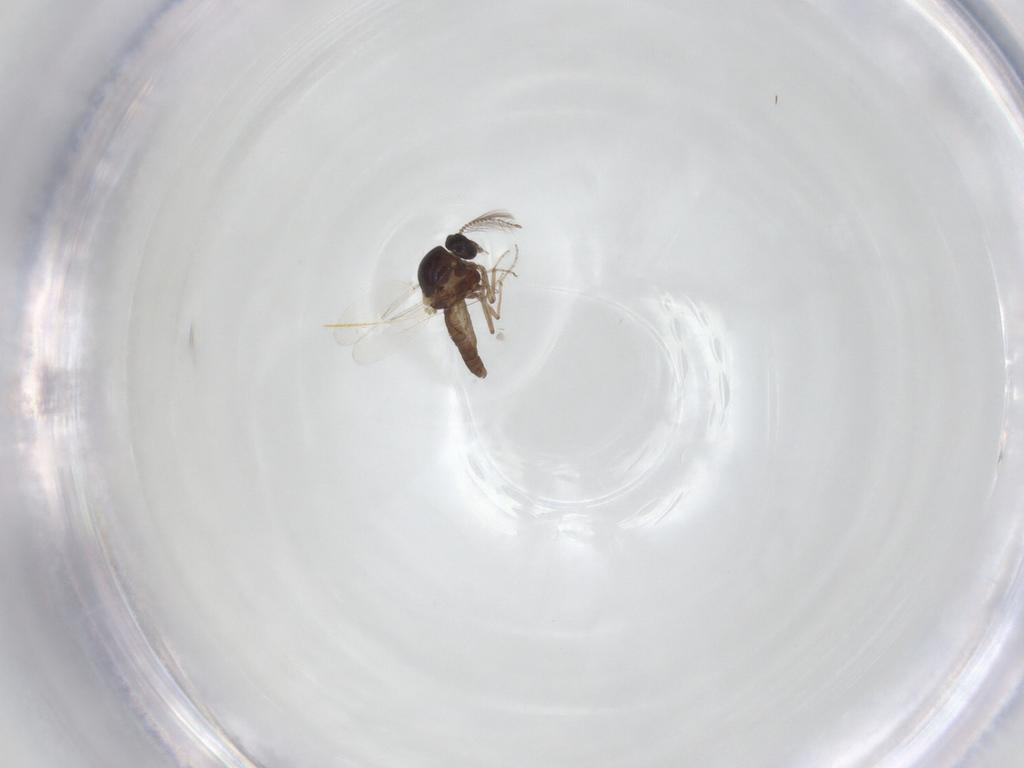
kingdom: Animalia
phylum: Arthropoda
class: Insecta
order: Diptera
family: Ceratopogonidae
